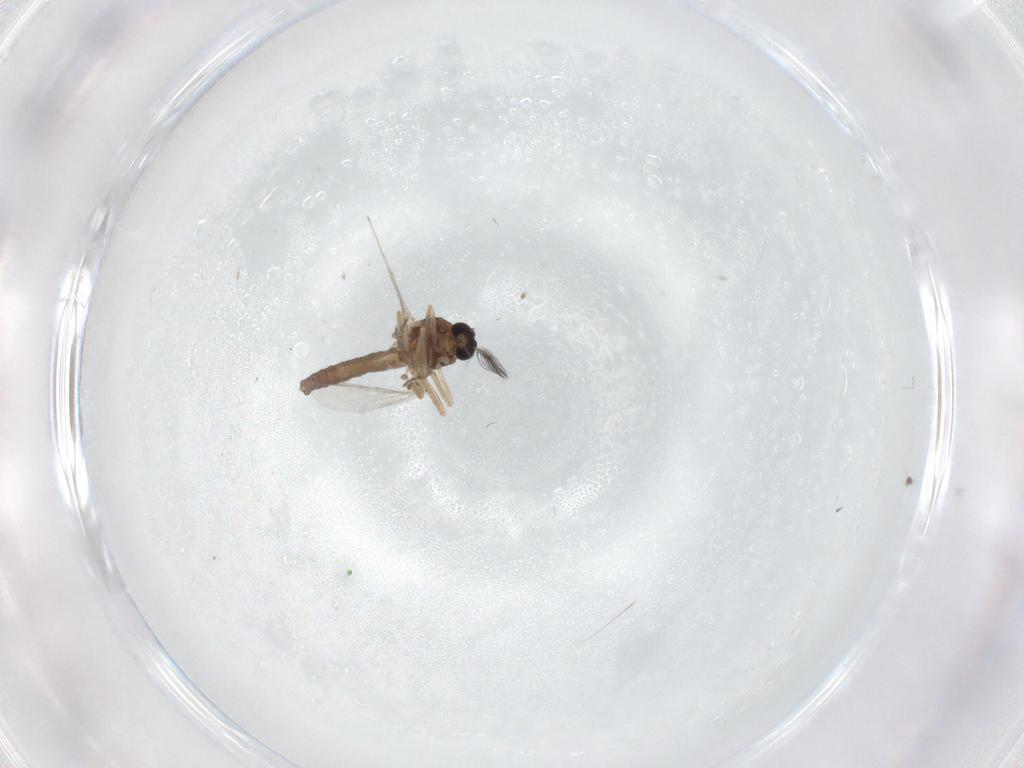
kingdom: Animalia
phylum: Arthropoda
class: Insecta
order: Diptera
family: Ceratopogonidae
